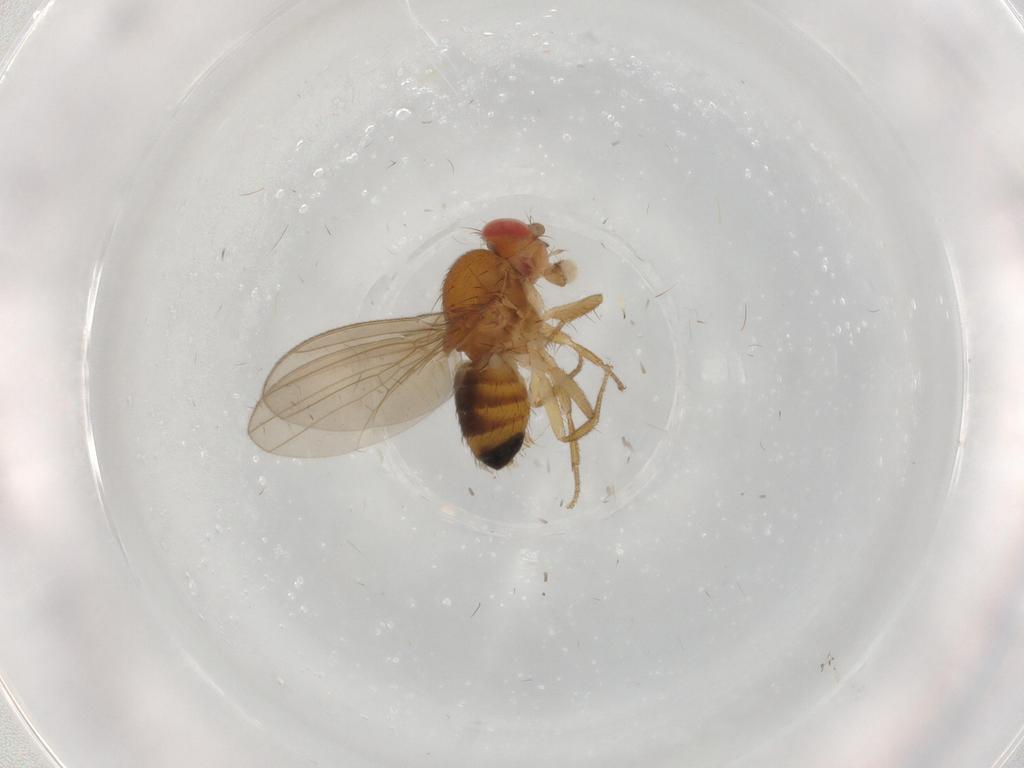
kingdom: Animalia
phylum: Arthropoda
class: Insecta
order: Diptera
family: Drosophilidae
